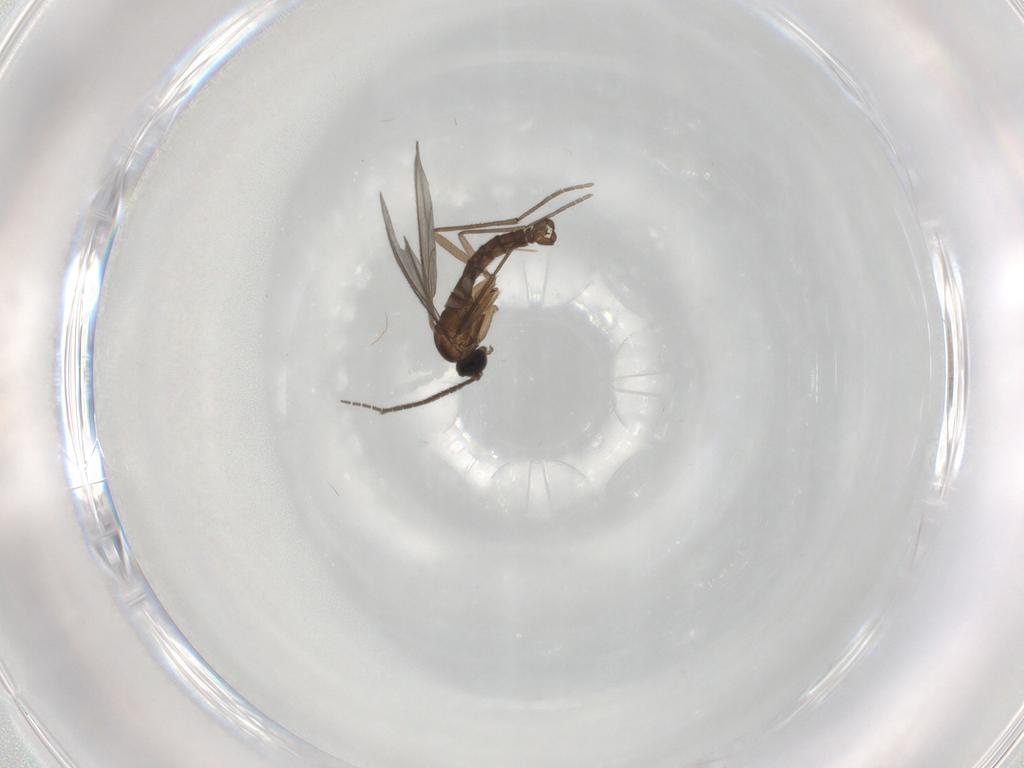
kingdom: Animalia
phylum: Arthropoda
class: Insecta
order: Diptera
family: Sciaridae
